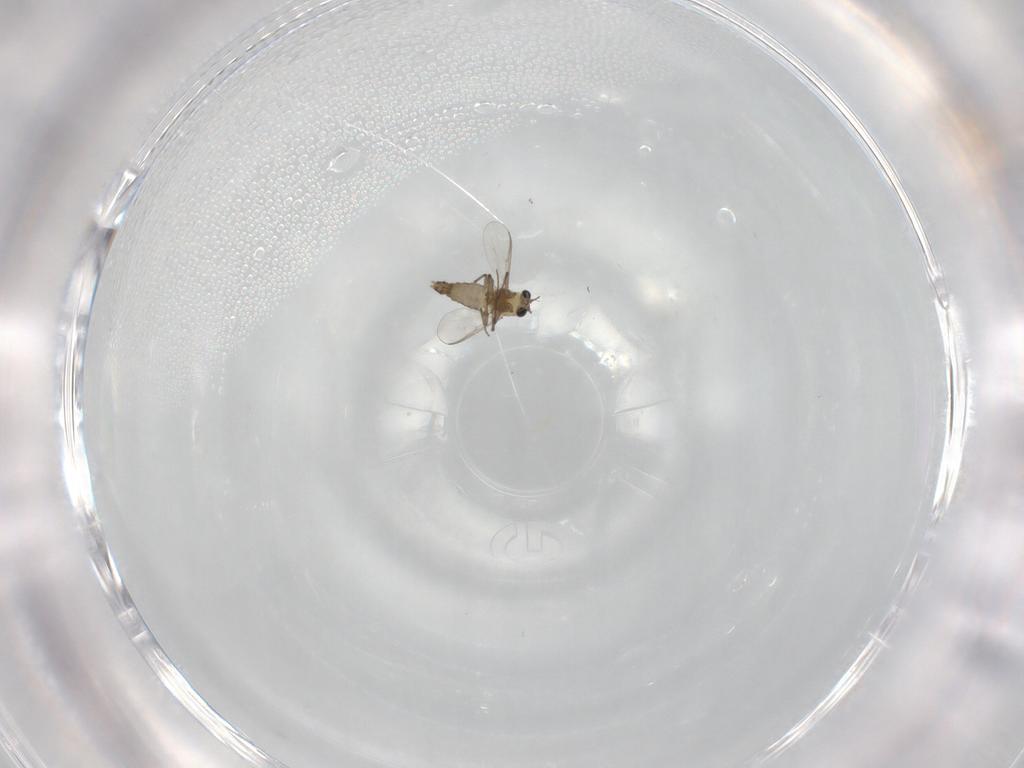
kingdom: Animalia
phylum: Arthropoda
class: Insecta
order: Diptera
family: Chironomidae
